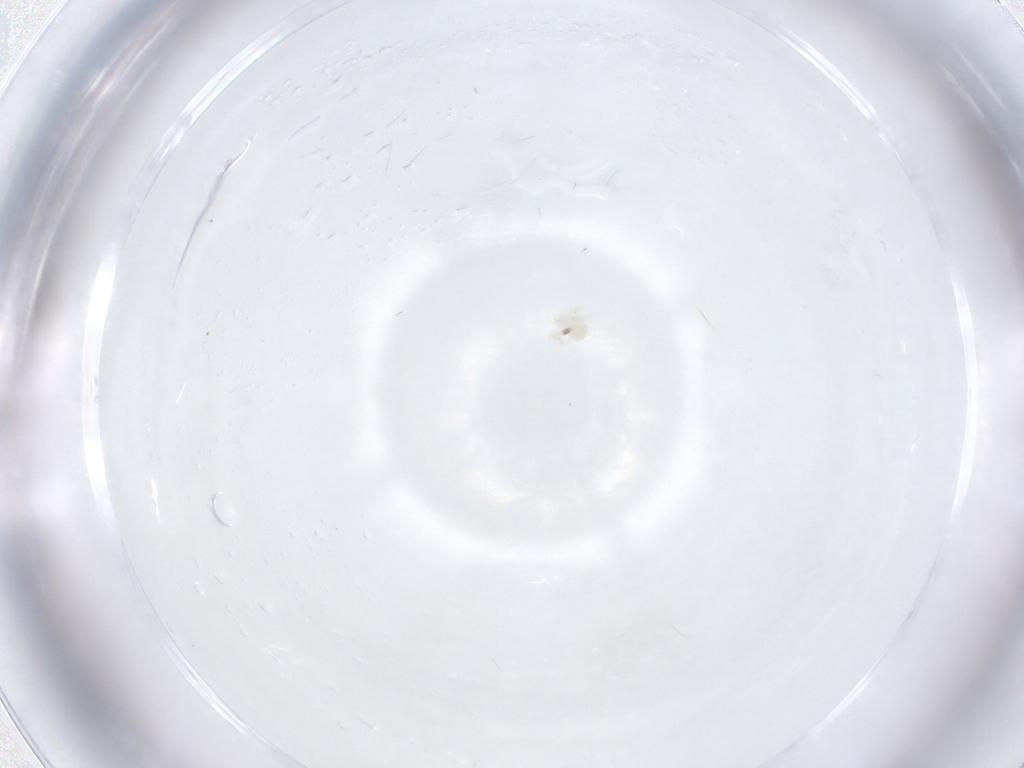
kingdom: Animalia
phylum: Arthropoda
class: Arachnida
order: Trombidiformes
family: Anystidae
